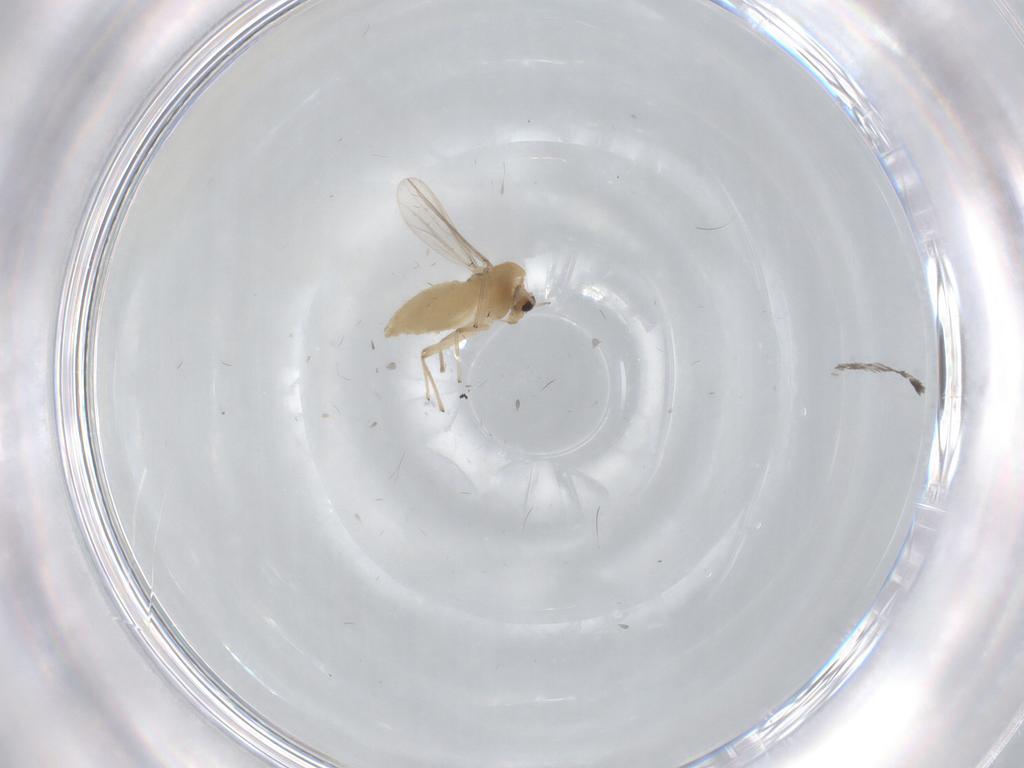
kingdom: Animalia
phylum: Arthropoda
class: Insecta
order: Diptera
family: Chironomidae
